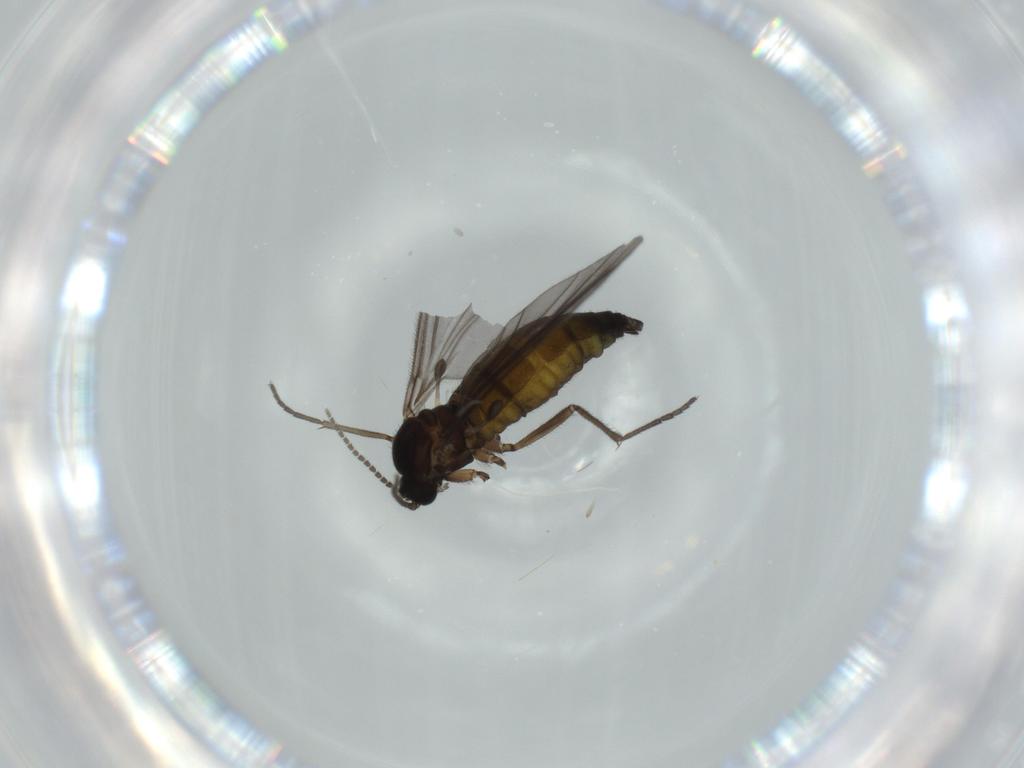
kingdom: Animalia
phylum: Arthropoda
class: Insecta
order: Diptera
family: Sciaridae
